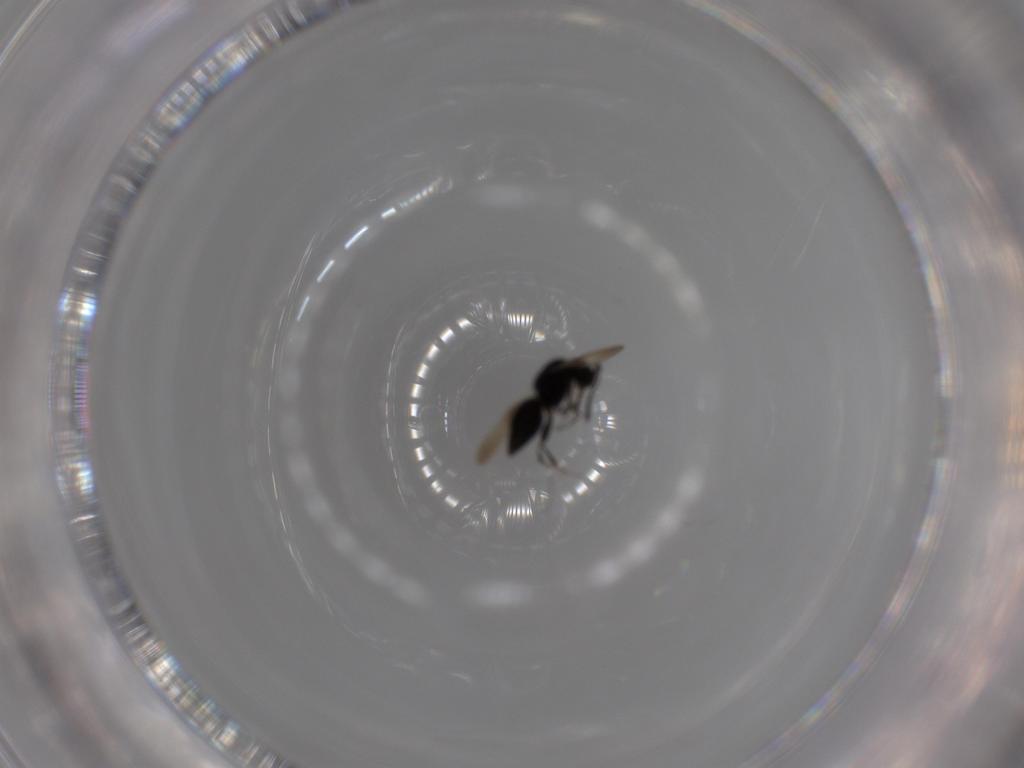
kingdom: Animalia
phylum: Arthropoda
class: Insecta
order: Hymenoptera
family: Ceraphronidae
